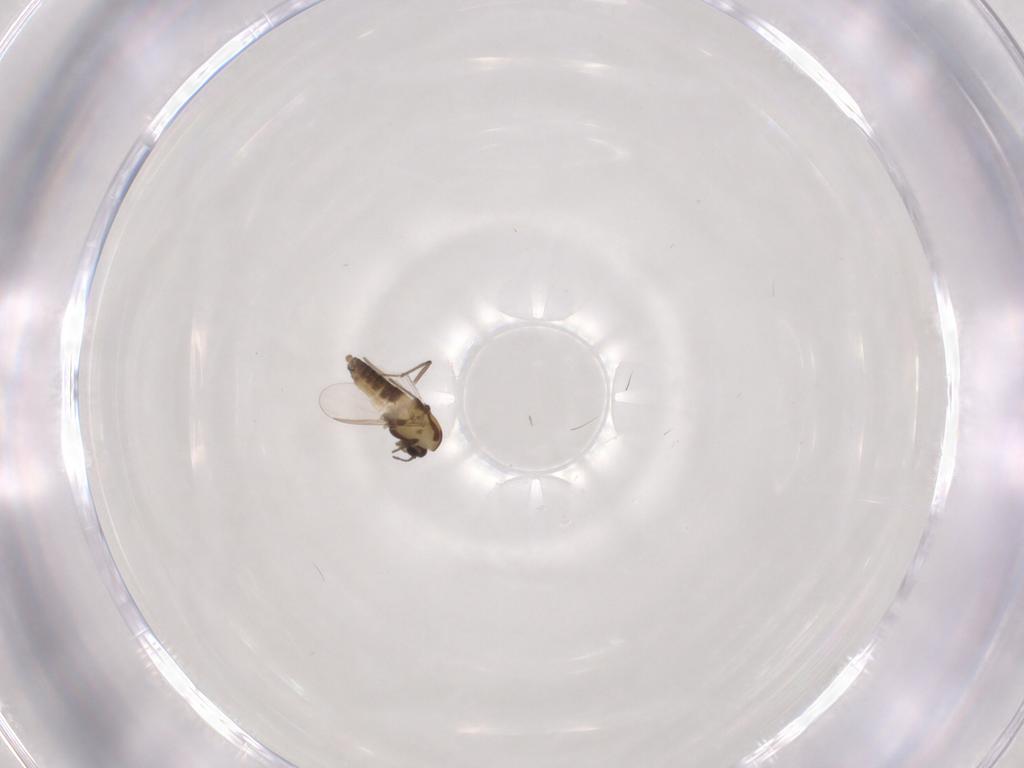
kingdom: Animalia
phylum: Arthropoda
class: Insecta
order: Diptera
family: Chironomidae
